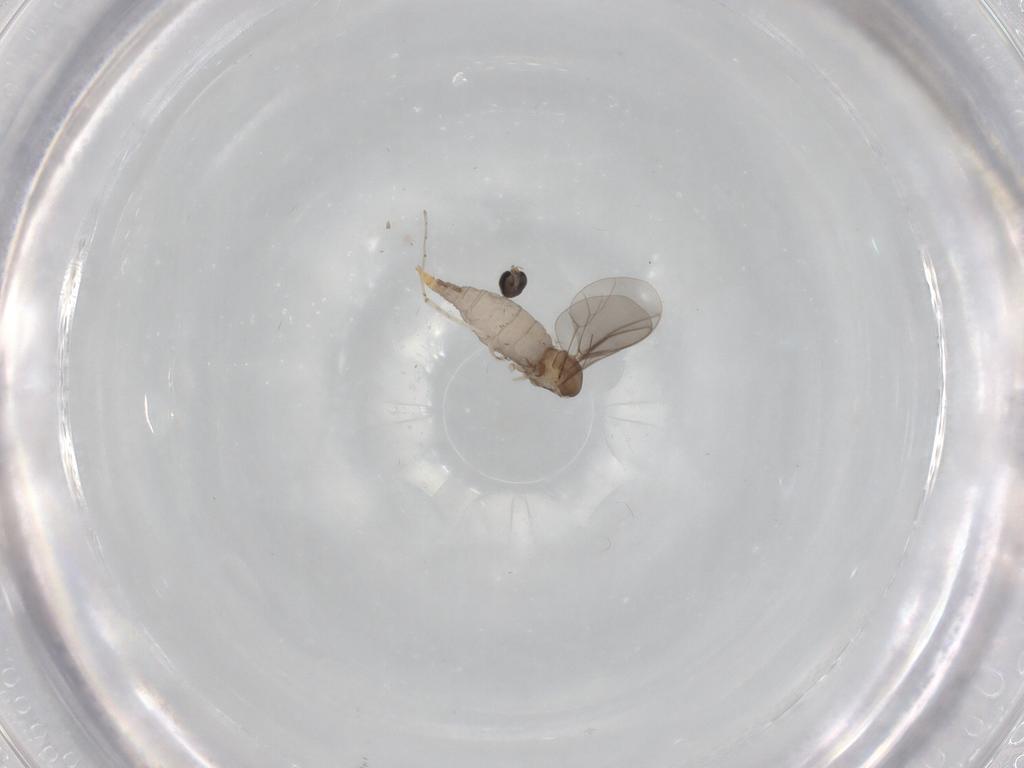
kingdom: Animalia
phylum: Arthropoda
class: Insecta
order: Diptera
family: Cecidomyiidae
